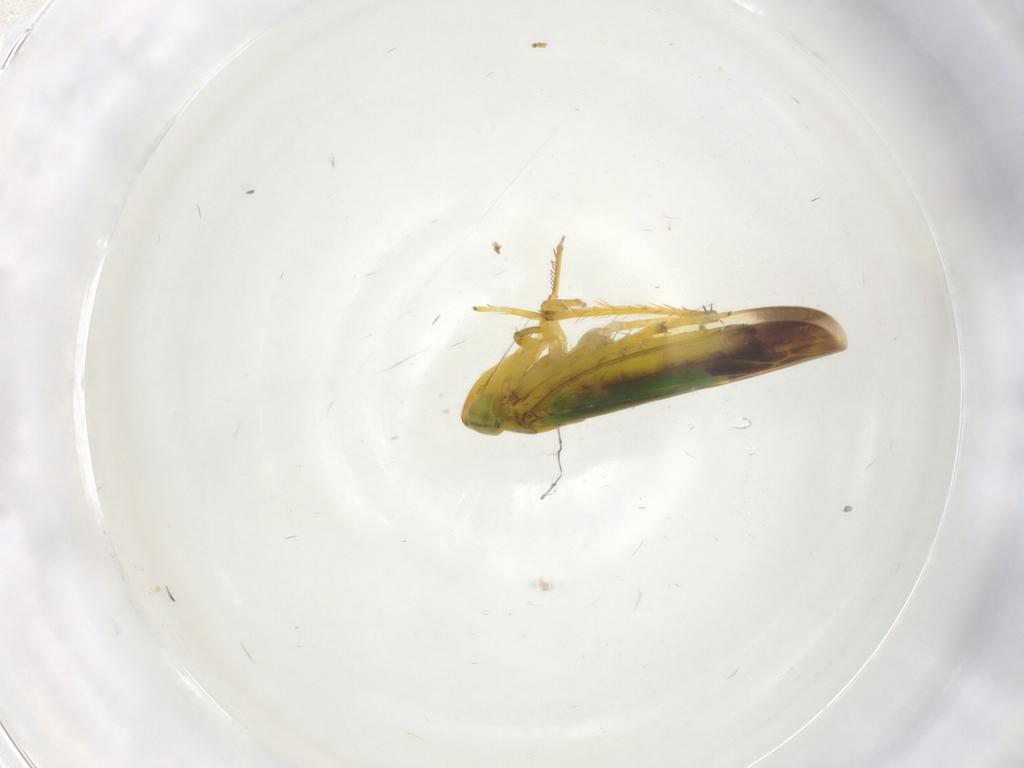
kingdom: Animalia
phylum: Arthropoda
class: Insecta
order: Hemiptera
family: Cicadellidae
